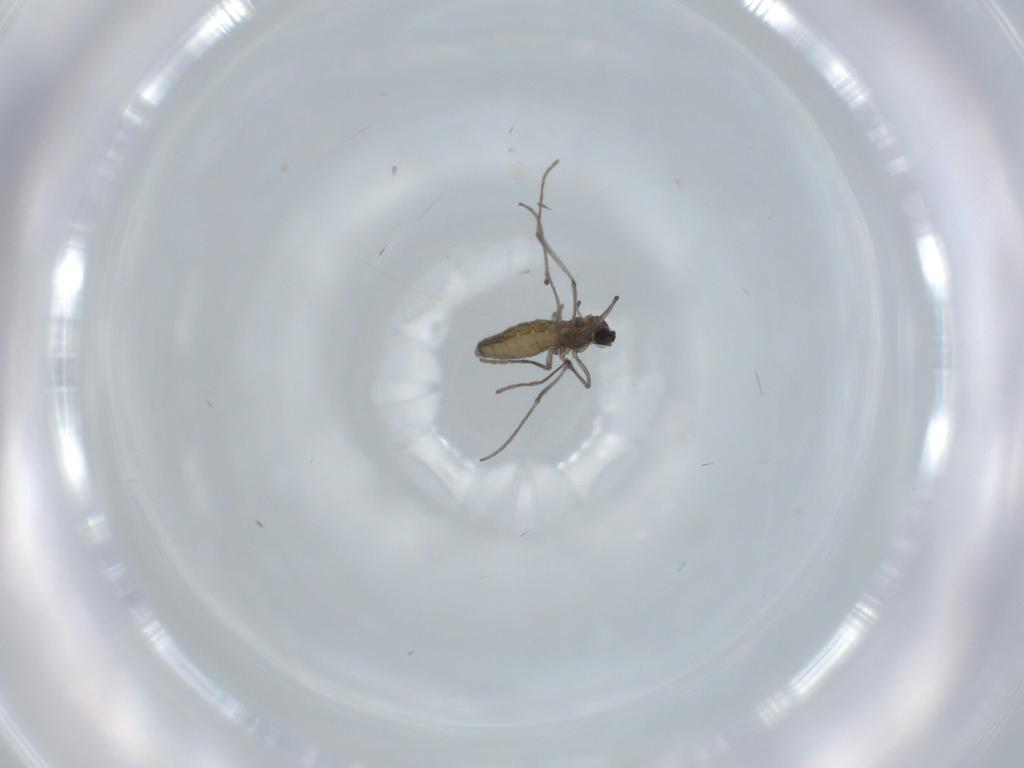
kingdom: Animalia
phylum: Arthropoda
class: Insecta
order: Diptera
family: Cecidomyiidae
